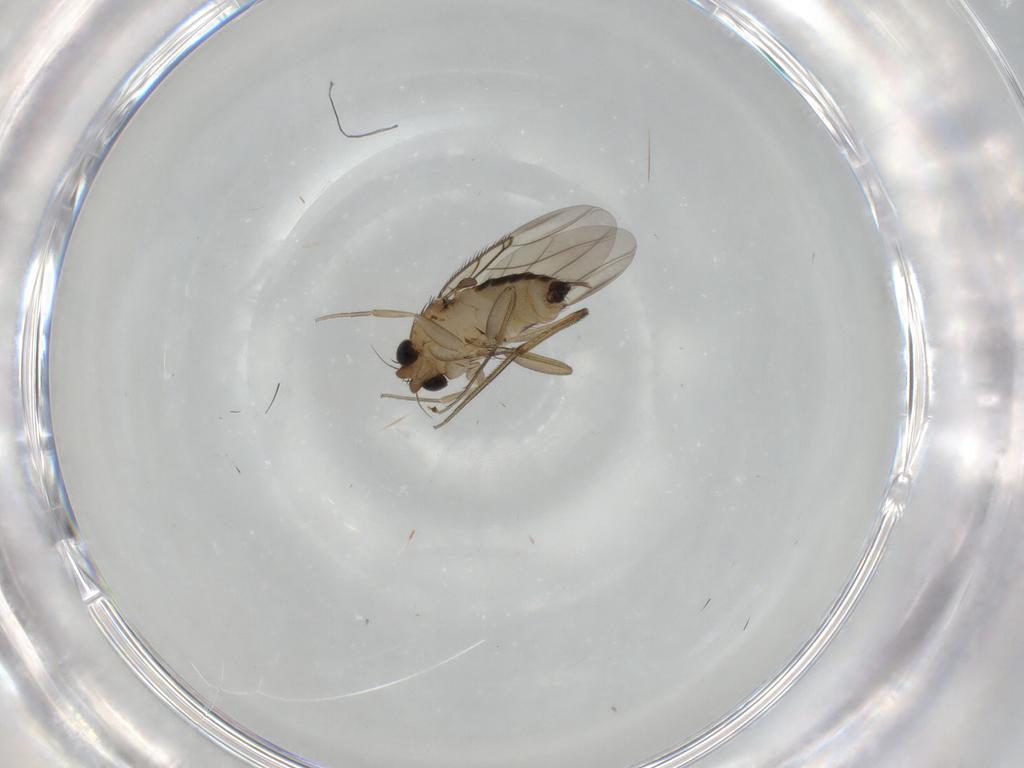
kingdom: Animalia
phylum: Arthropoda
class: Insecta
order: Diptera
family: Phoridae
